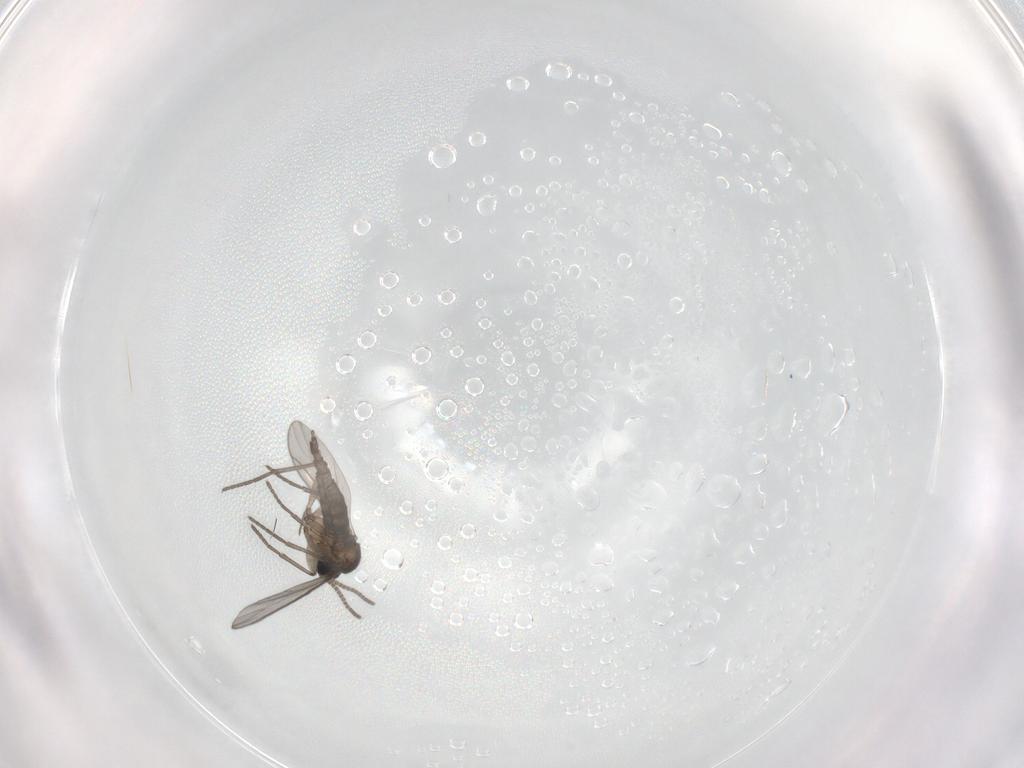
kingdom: Animalia
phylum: Arthropoda
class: Insecta
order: Diptera
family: Chironomidae
